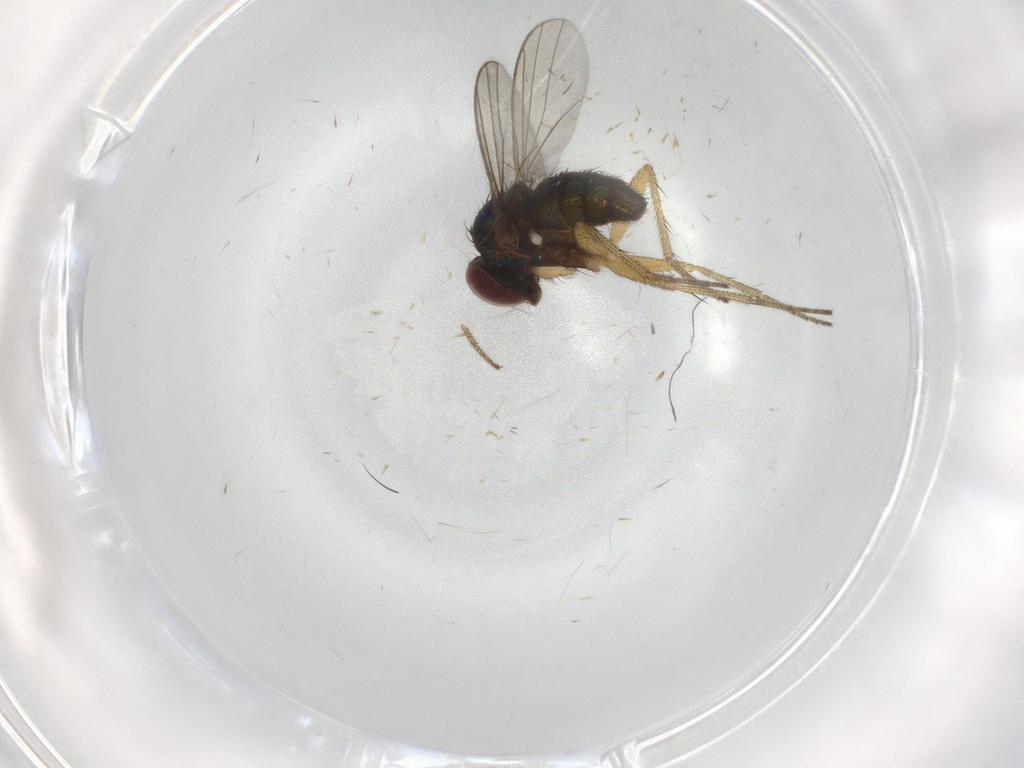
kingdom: Animalia
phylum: Arthropoda
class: Insecta
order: Diptera
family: Dolichopodidae
